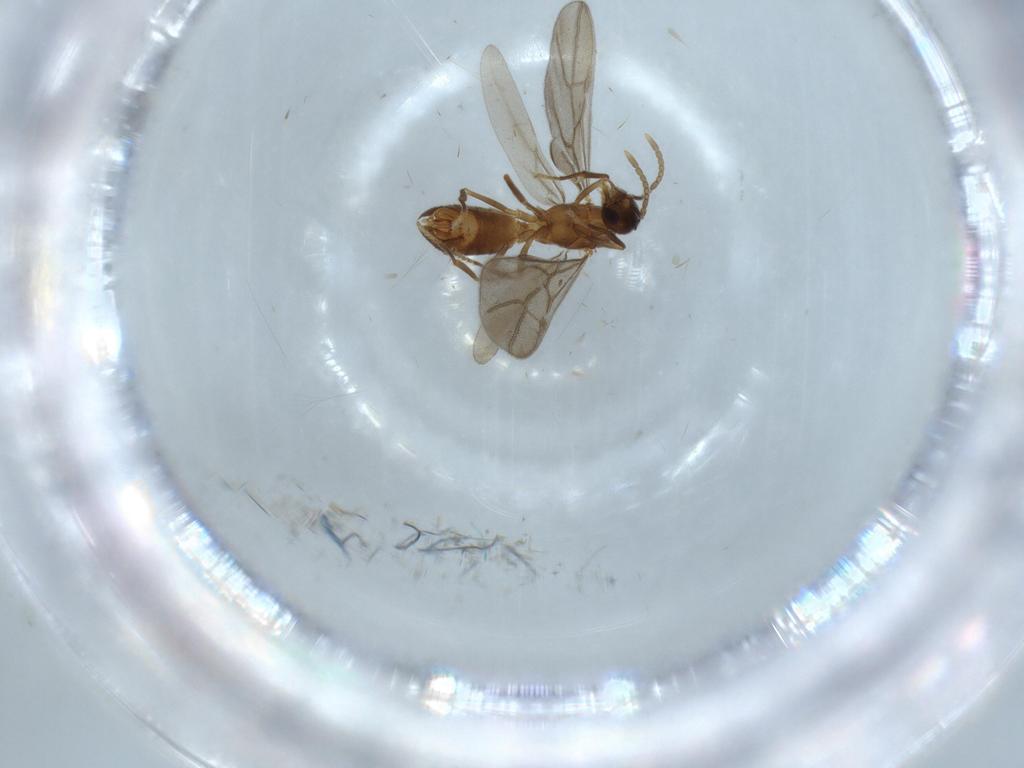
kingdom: Animalia
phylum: Arthropoda
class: Insecta
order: Hymenoptera
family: Formicidae
